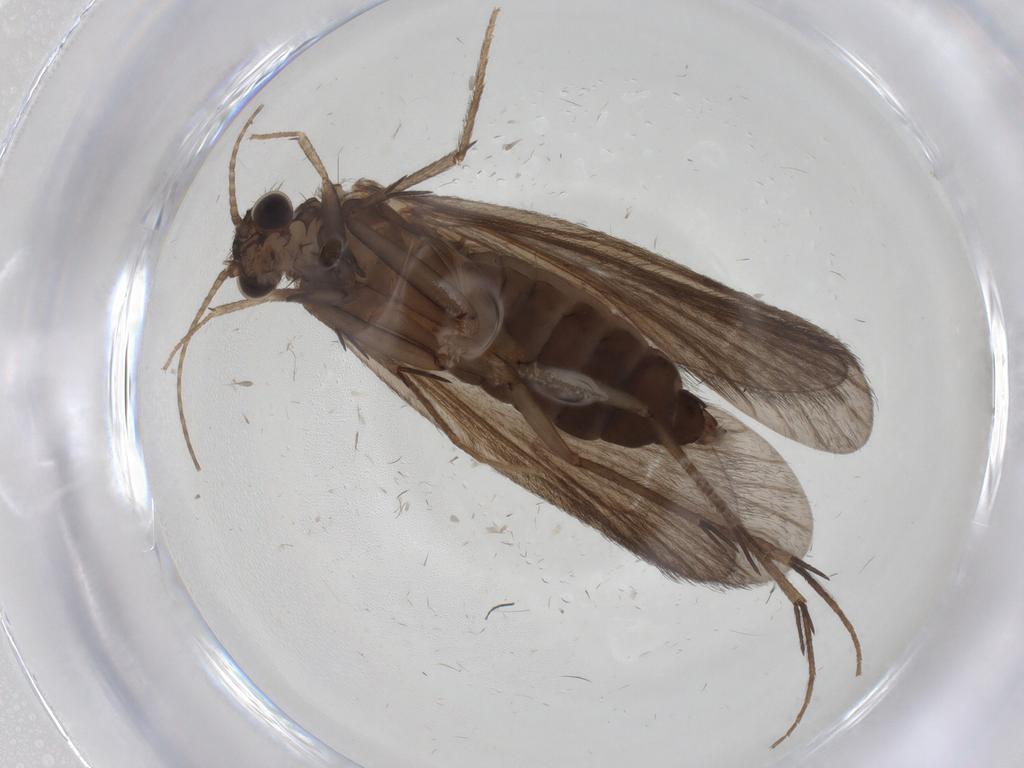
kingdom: Animalia
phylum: Arthropoda
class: Insecta
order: Trichoptera
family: Philopotamidae
